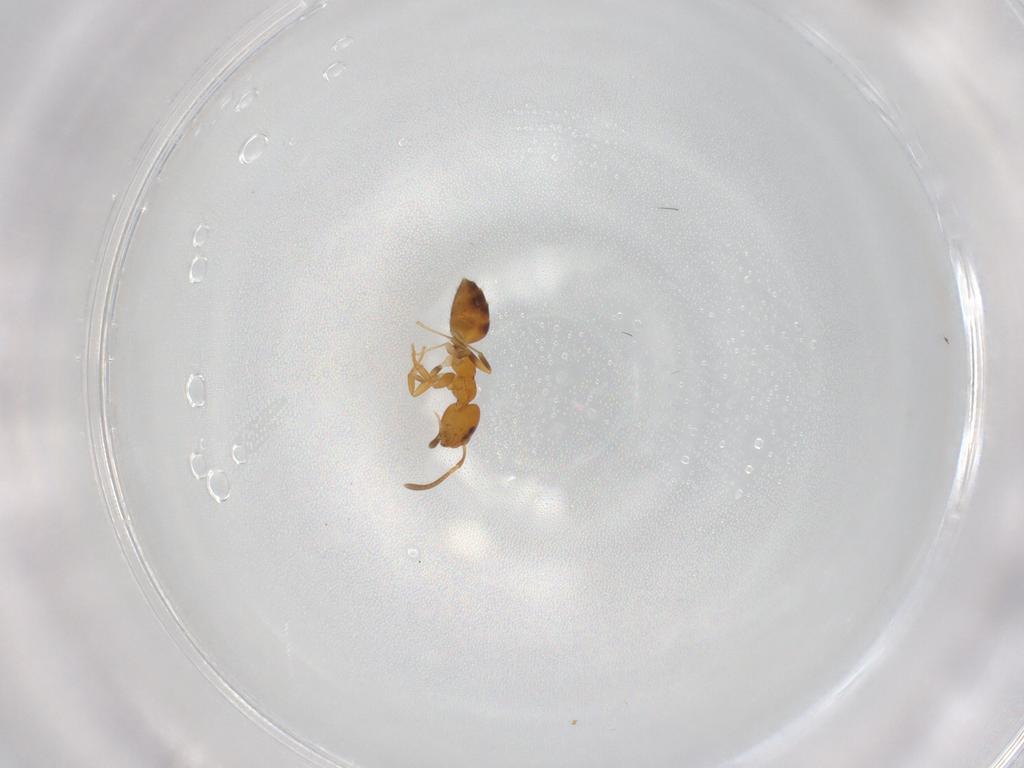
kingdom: Animalia
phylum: Arthropoda
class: Insecta
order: Hymenoptera
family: Formicidae
